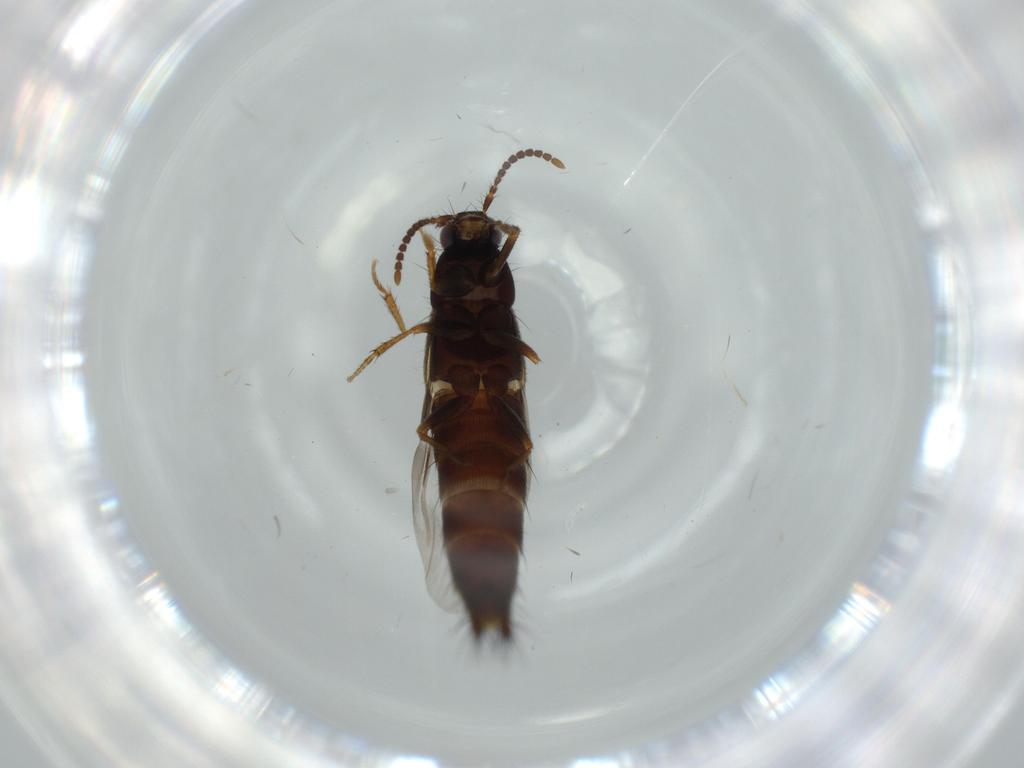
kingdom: Animalia
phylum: Arthropoda
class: Insecta
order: Coleoptera
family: Staphylinidae
